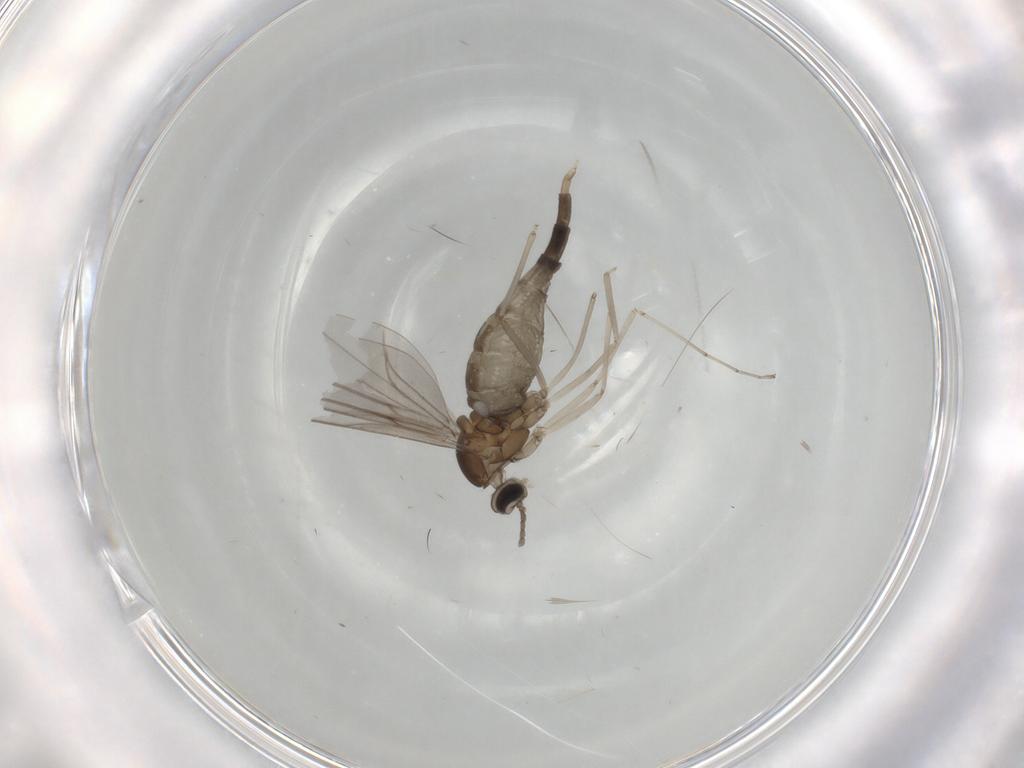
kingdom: Animalia
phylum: Arthropoda
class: Insecta
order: Diptera
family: Cecidomyiidae
